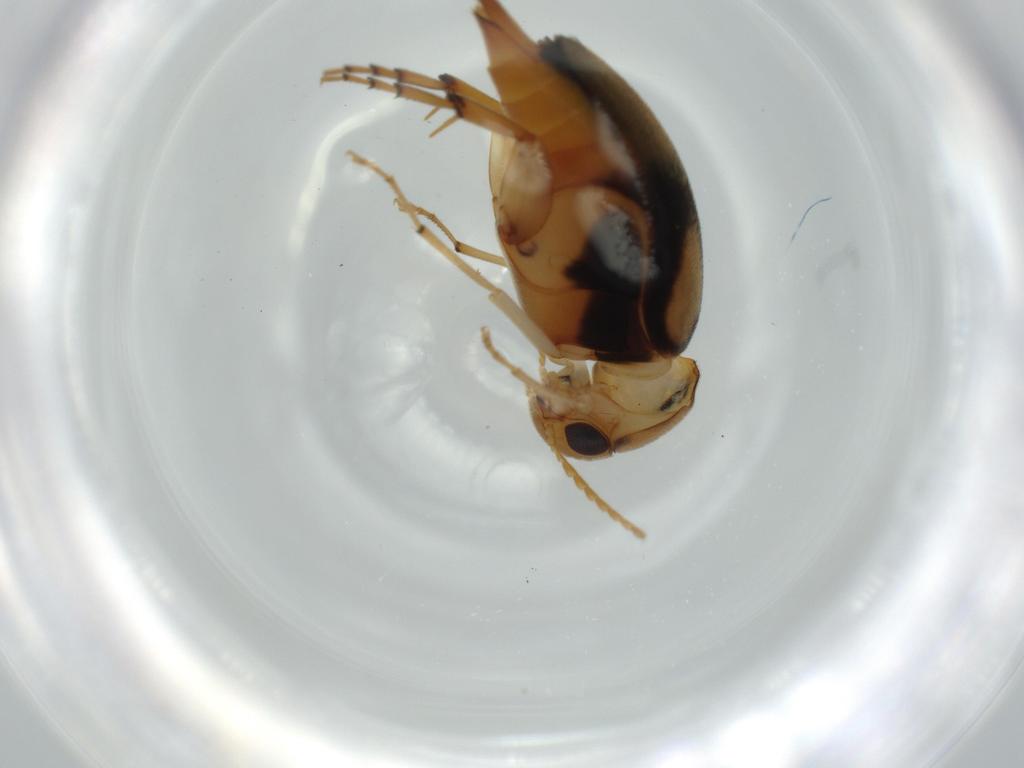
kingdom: Animalia
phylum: Arthropoda
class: Insecta
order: Coleoptera
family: Mordellidae
